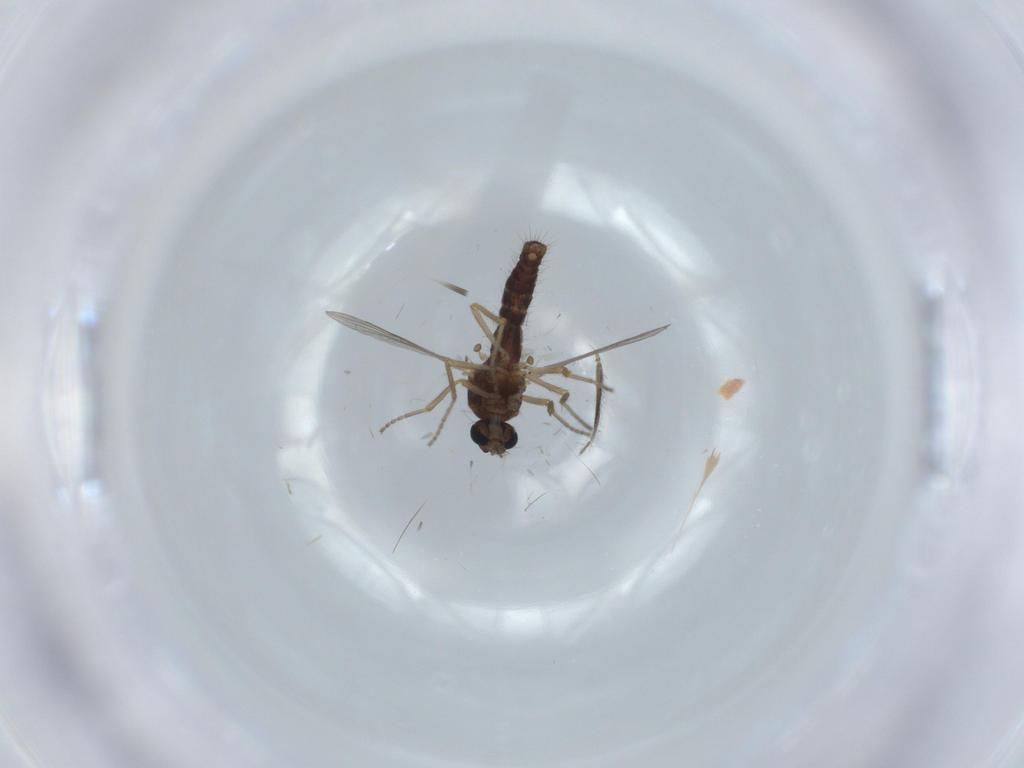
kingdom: Animalia
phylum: Arthropoda
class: Insecta
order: Diptera
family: Ceratopogonidae
